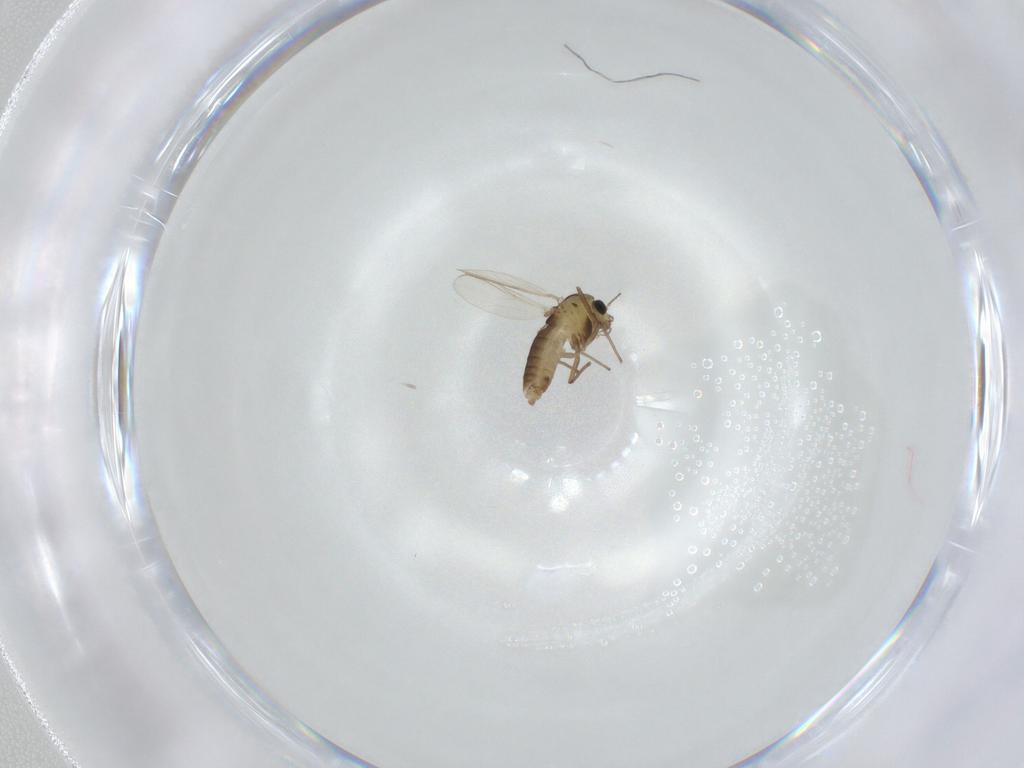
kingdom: Animalia
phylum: Arthropoda
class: Insecta
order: Diptera
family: Chironomidae
